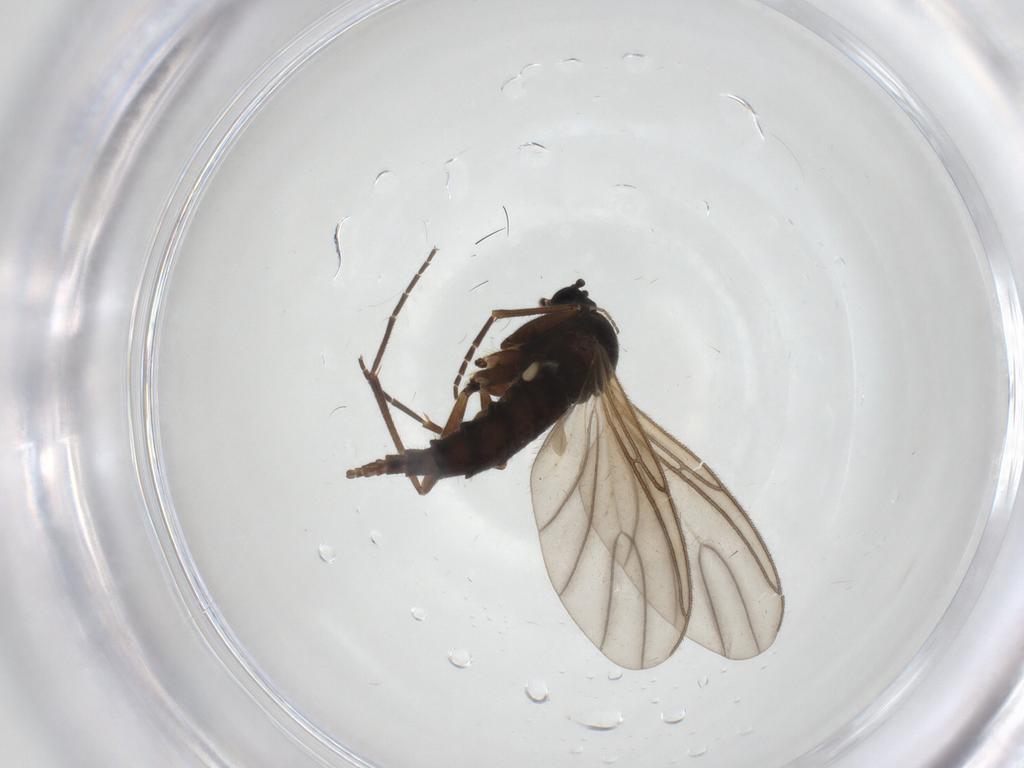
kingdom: Animalia
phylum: Arthropoda
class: Insecta
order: Diptera
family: Sciaridae
